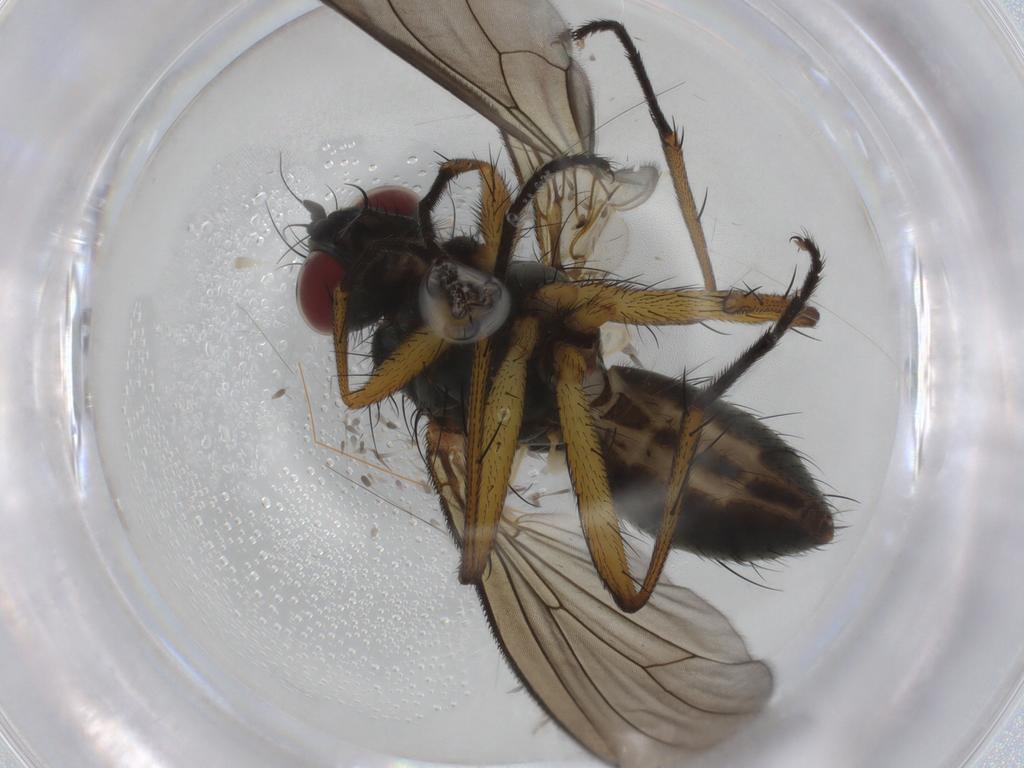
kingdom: Animalia
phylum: Arthropoda
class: Insecta
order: Diptera
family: Muscidae
